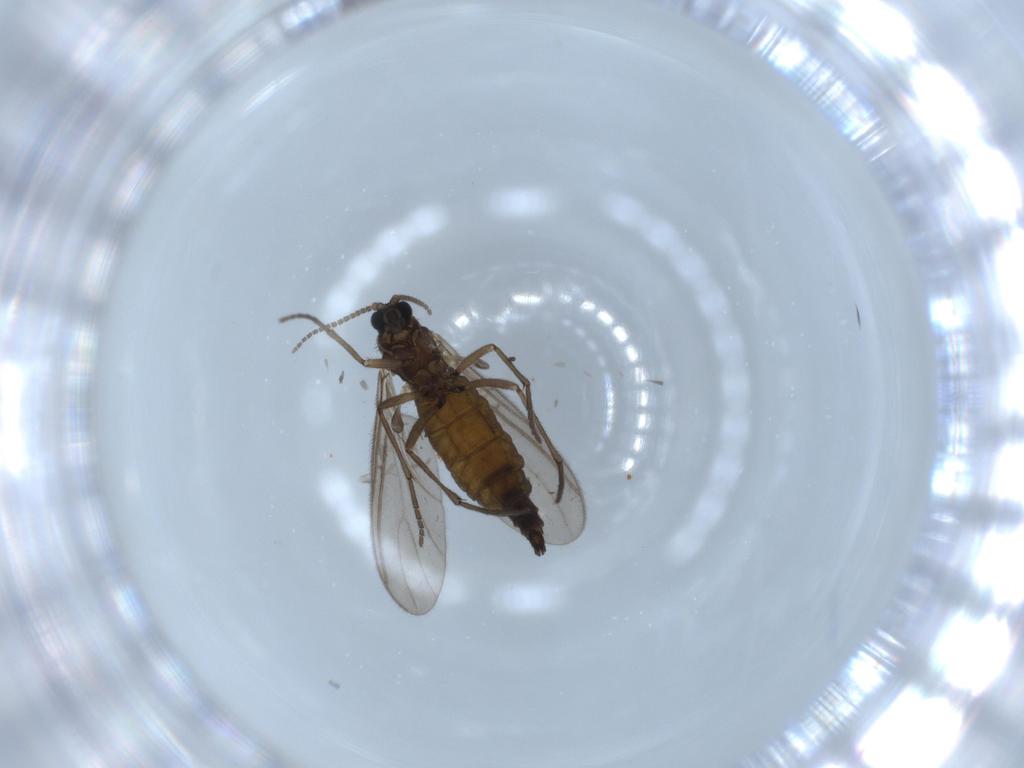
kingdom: Animalia
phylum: Arthropoda
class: Insecta
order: Diptera
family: Sciaridae
